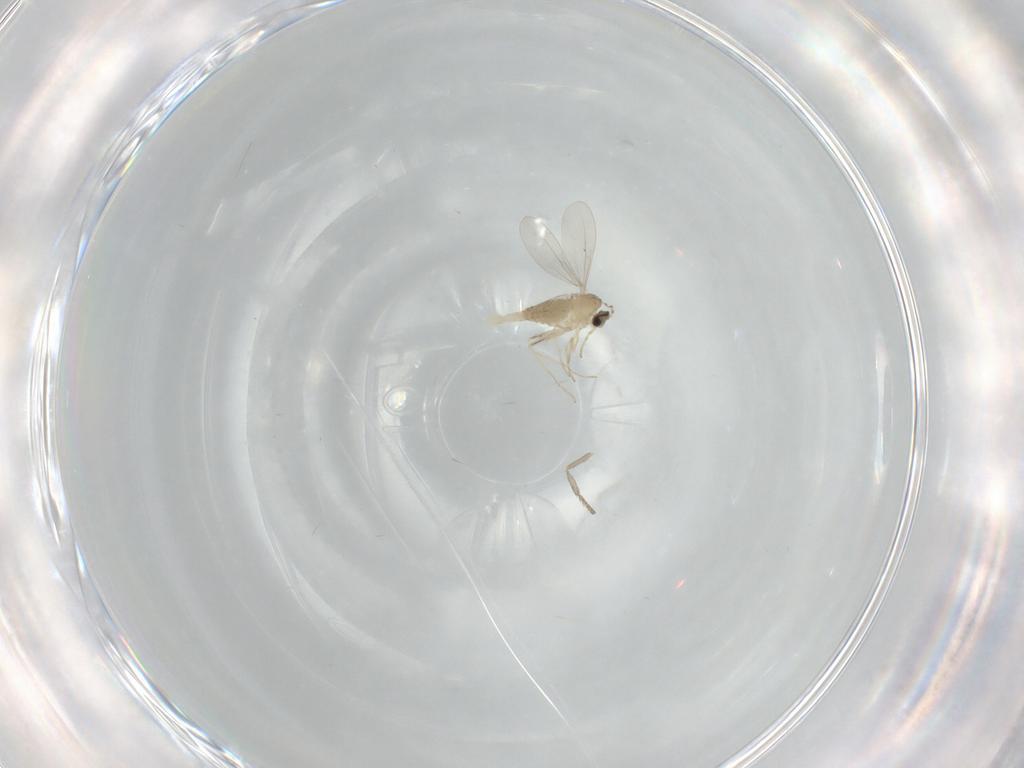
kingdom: Animalia
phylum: Arthropoda
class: Insecta
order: Diptera
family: Cecidomyiidae
